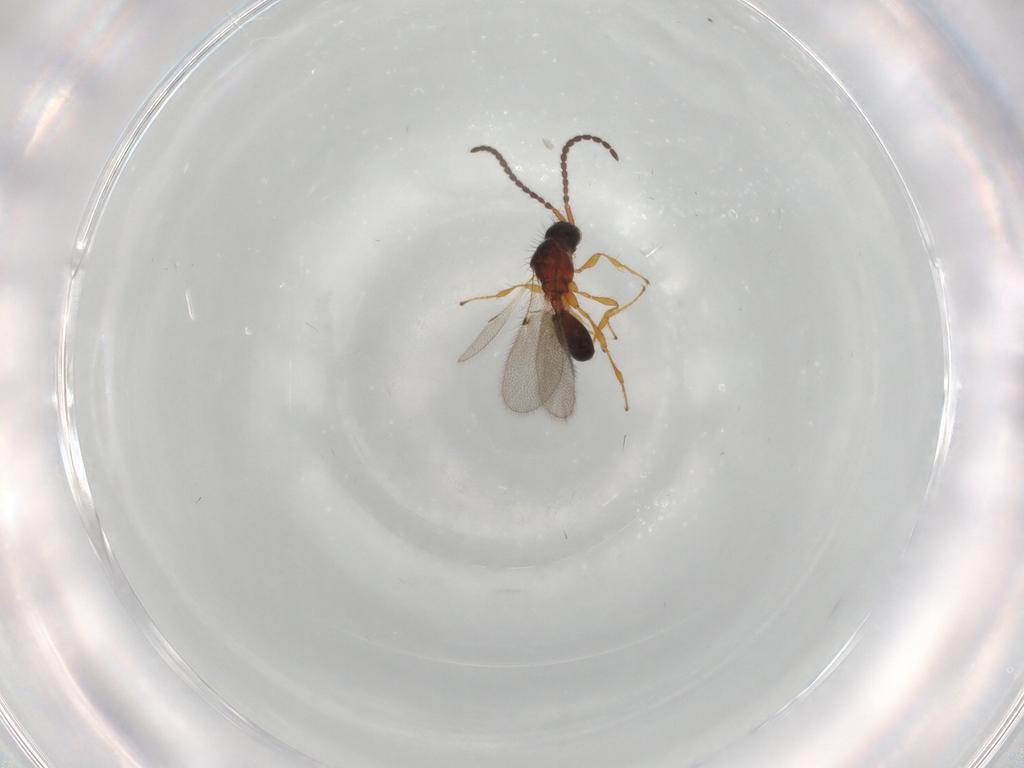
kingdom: Animalia
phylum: Arthropoda
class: Insecta
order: Hymenoptera
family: Diapriidae
